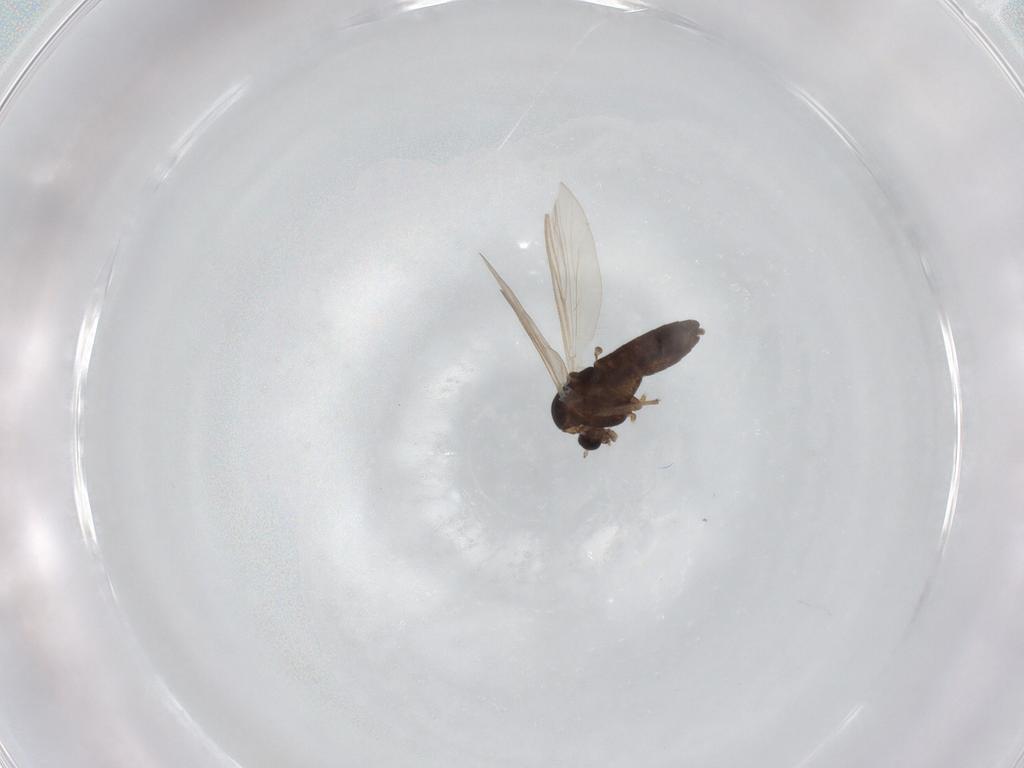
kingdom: Animalia
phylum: Arthropoda
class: Insecta
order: Diptera
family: Chironomidae
